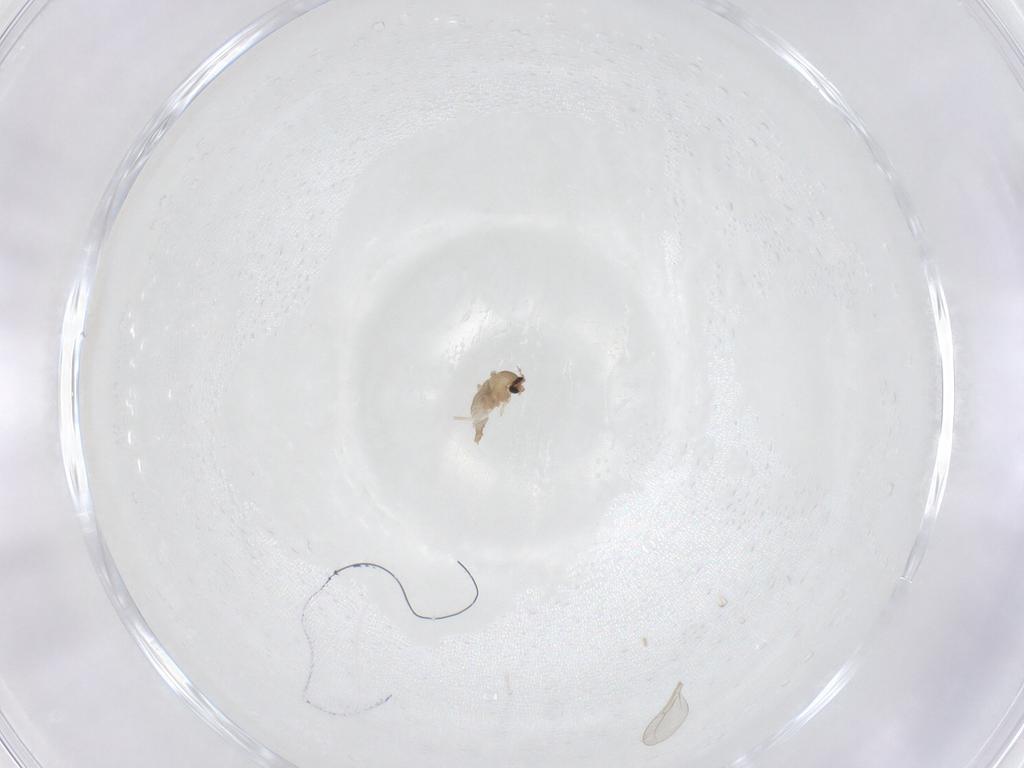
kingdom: Animalia
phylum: Arthropoda
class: Insecta
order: Diptera
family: Cecidomyiidae
